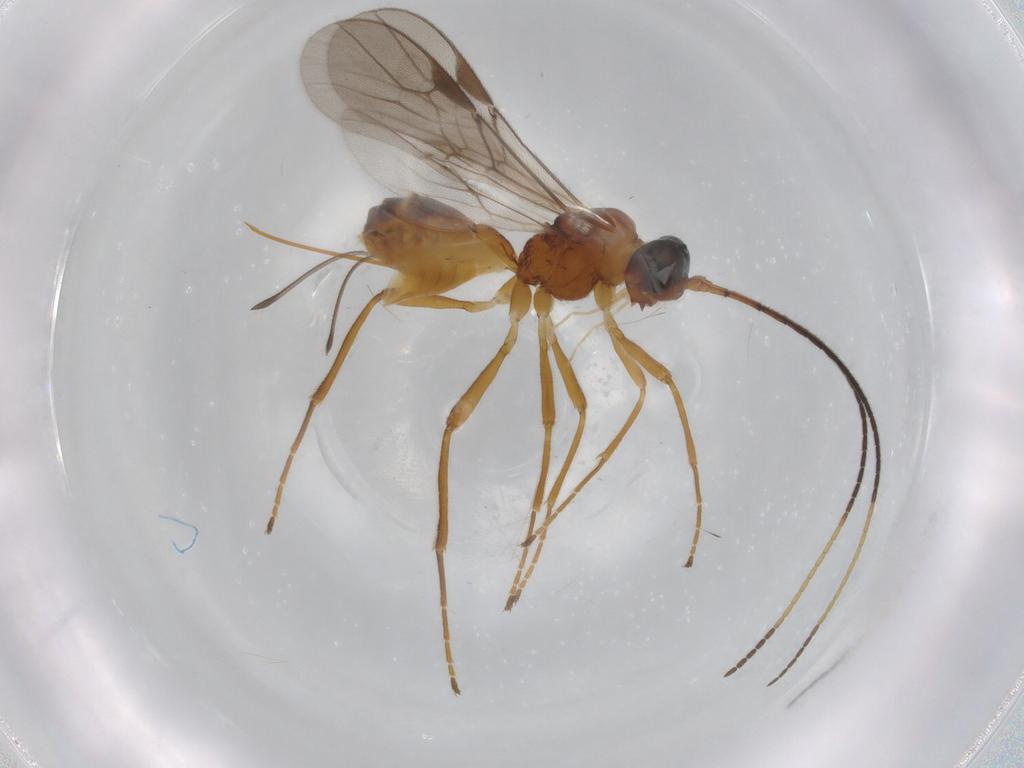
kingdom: Animalia
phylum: Arthropoda
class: Insecta
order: Hymenoptera
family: Braconidae
